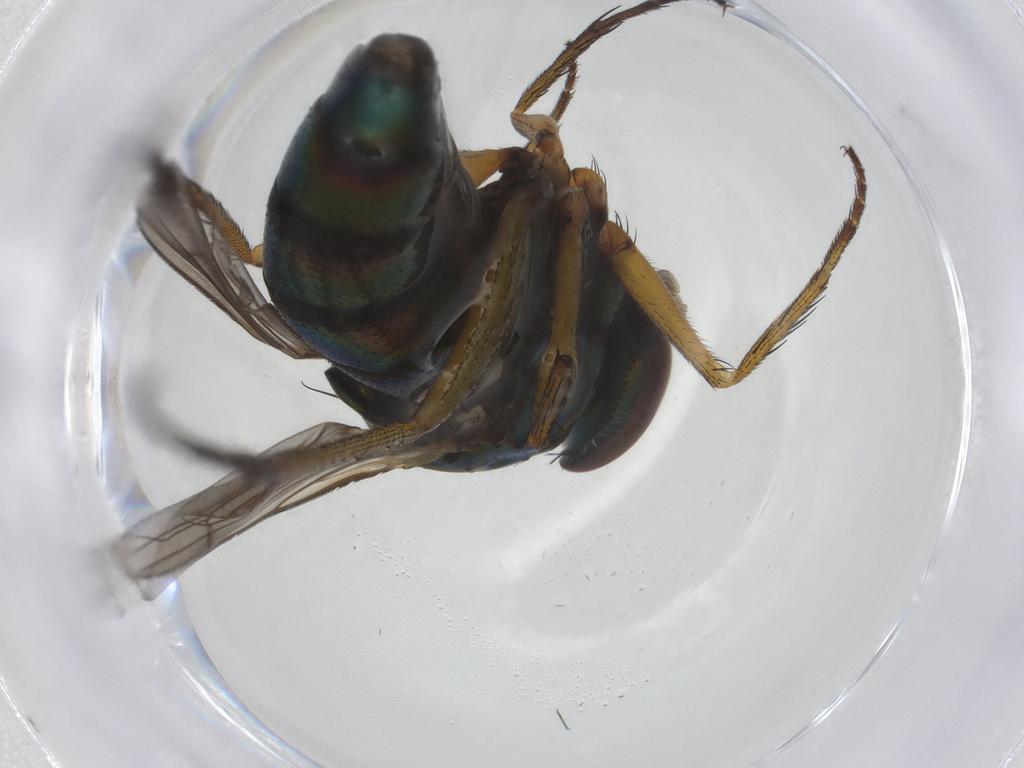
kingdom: Animalia
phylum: Arthropoda
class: Insecta
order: Diptera
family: Dolichopodidae
